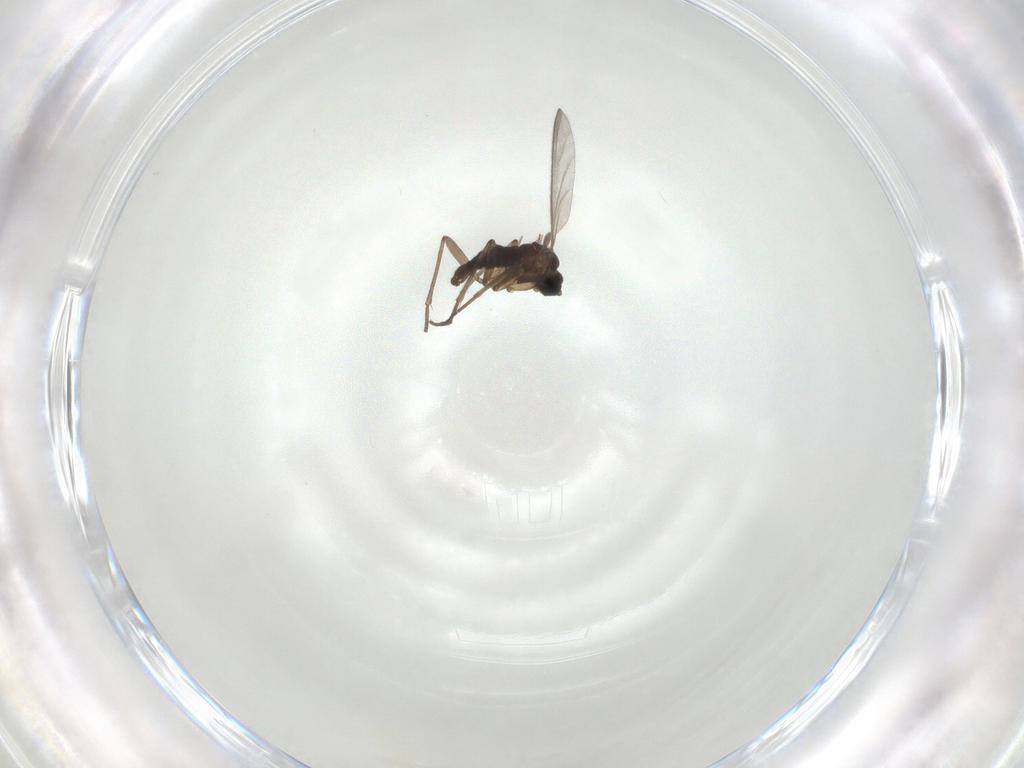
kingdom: Animalia
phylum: Arthropoda
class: Insecta
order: Diptera
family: Sciaridae
